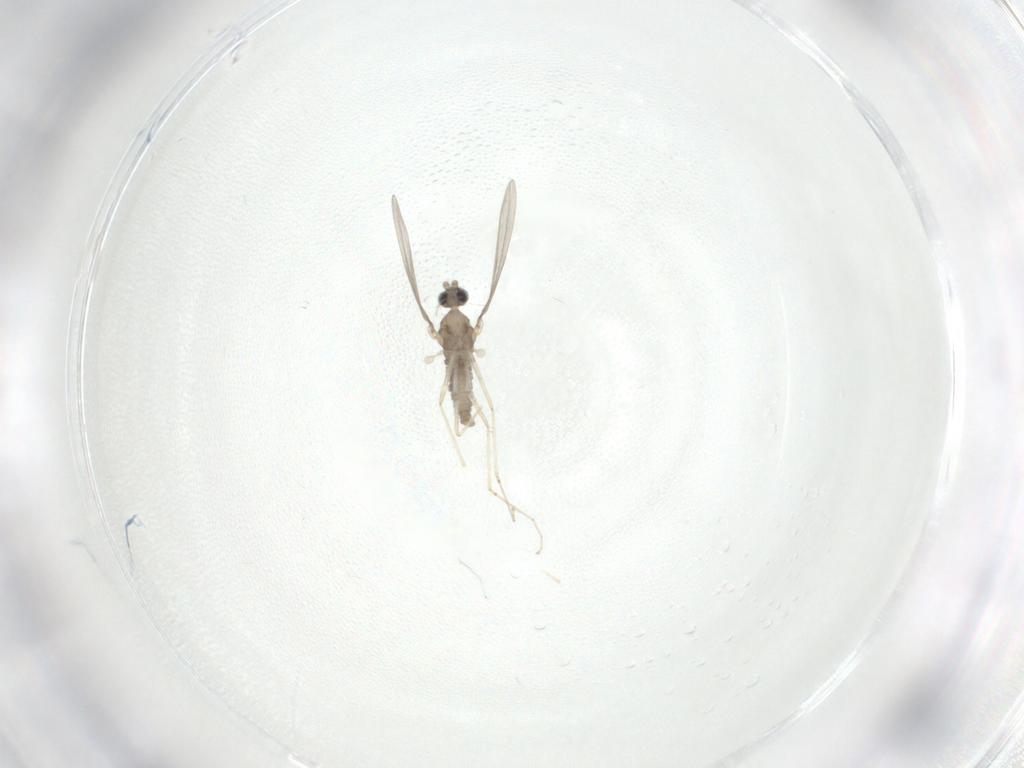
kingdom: Animalia
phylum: Arthropoda
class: Insecta
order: Diptera
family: Cecidomyiidae
